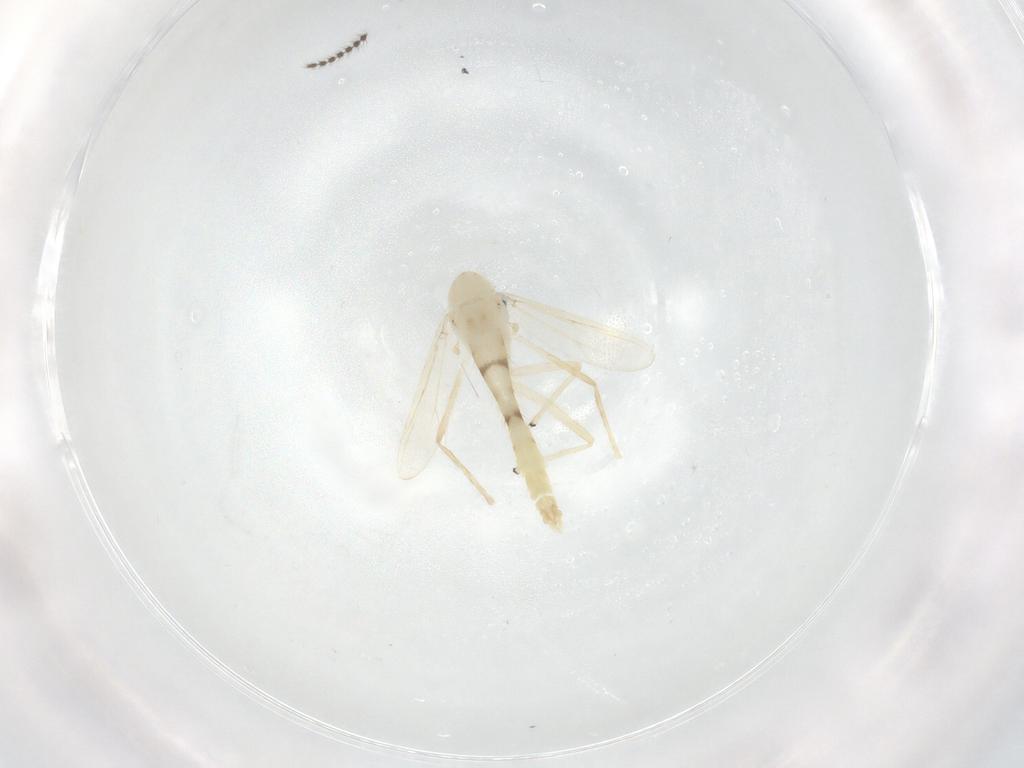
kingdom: Animalia
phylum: Arthropoda
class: Insecta
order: Diptera
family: Chironomidae
